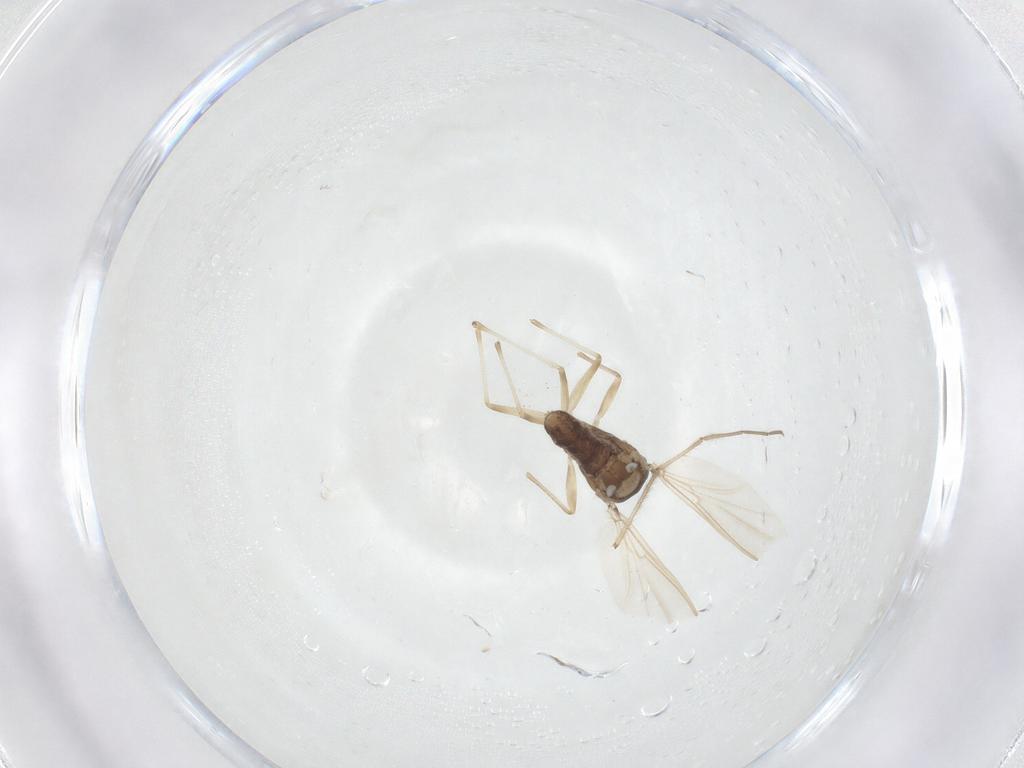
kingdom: Animalia
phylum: Arthropoda
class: Insecta
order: Diptera
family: Chironomidae
